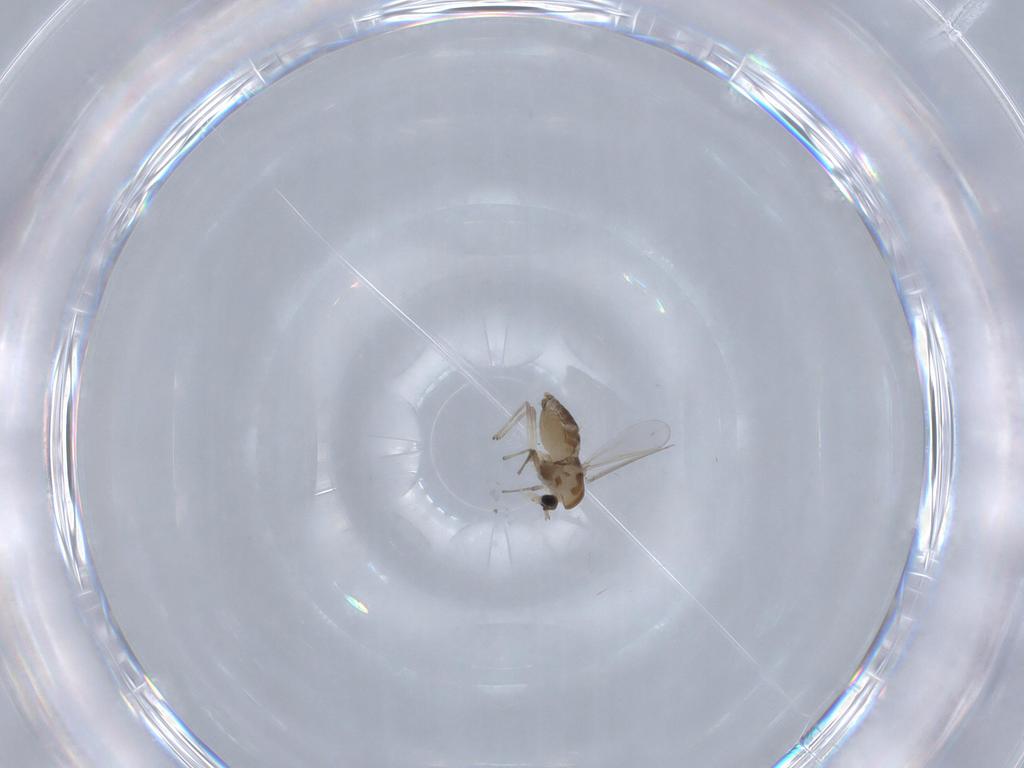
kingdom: Animalia
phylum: Arthropoda
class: Insecta
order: Diptera
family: Chironomidae
